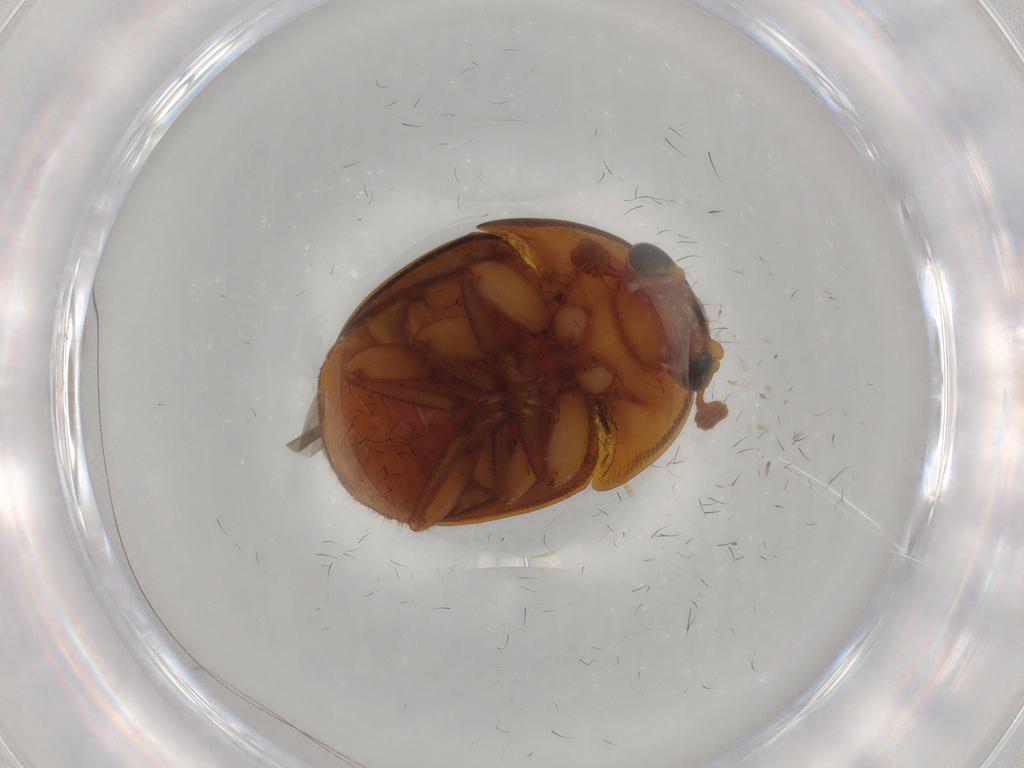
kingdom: Animalia
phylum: Arthropoda
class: Insecta
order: Coleoptera
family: Nitidulidae
